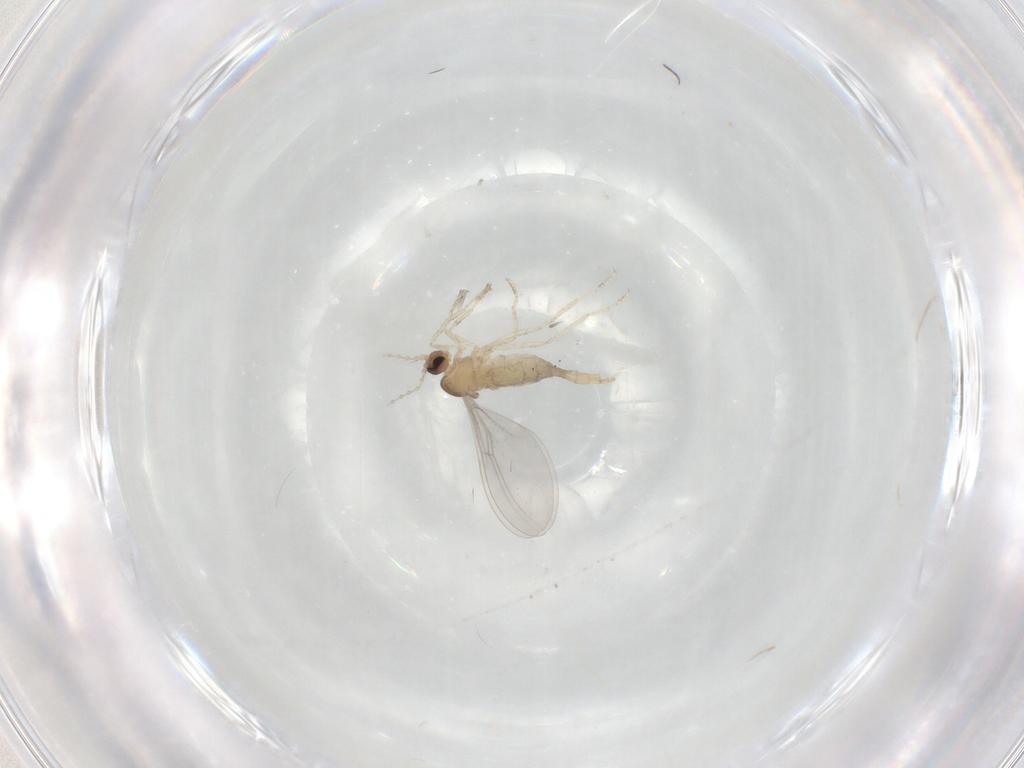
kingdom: Animalia
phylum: Arthropoda
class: Insecta
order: Diptera
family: Cecidomyiidae
